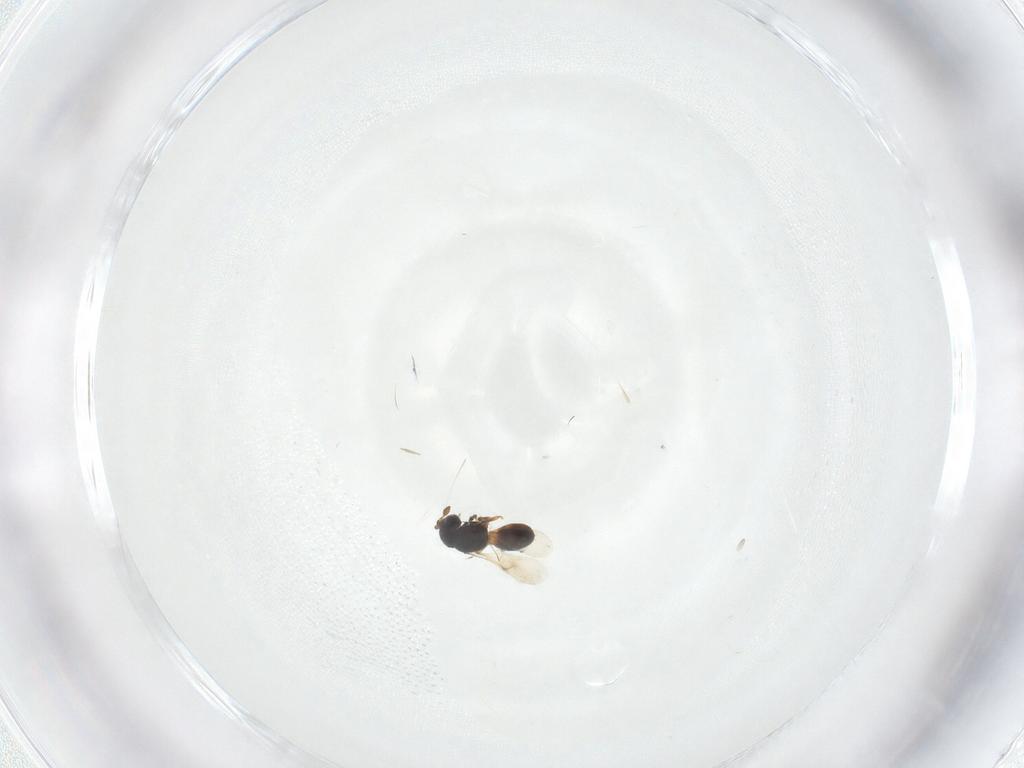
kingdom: Animalia
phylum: Arthropoda
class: Insecta
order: Hymenoptera
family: Scelionidae
